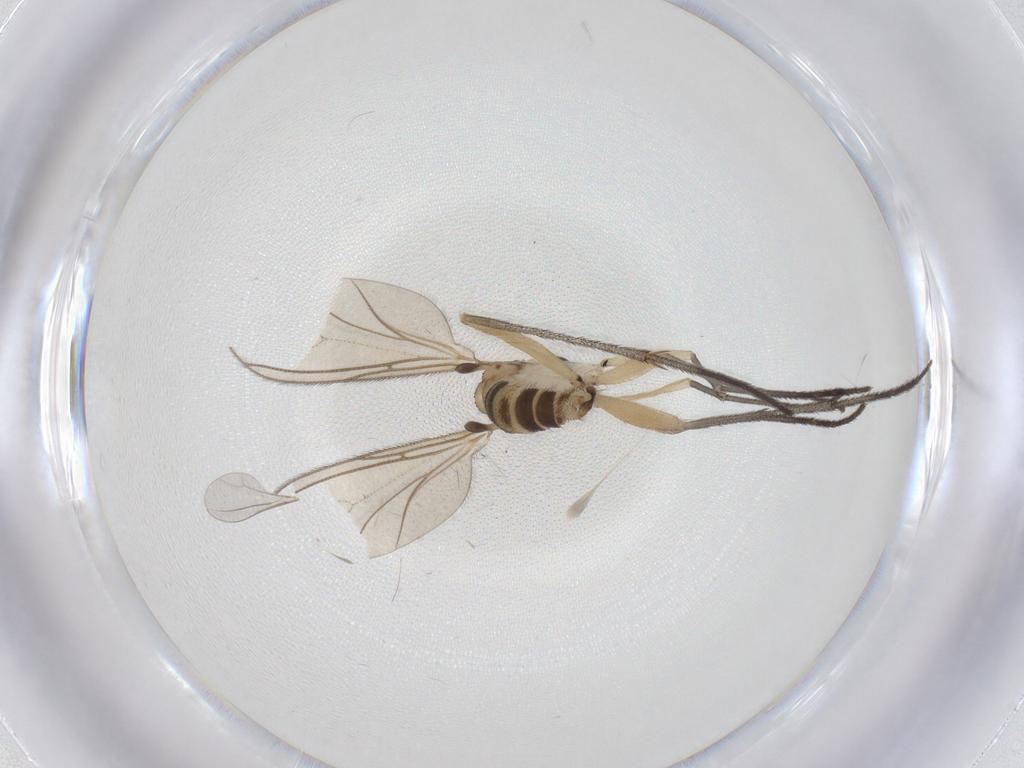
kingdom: Animalia
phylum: Arthropoda
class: Insecta
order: Diptera
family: Sciaridae
